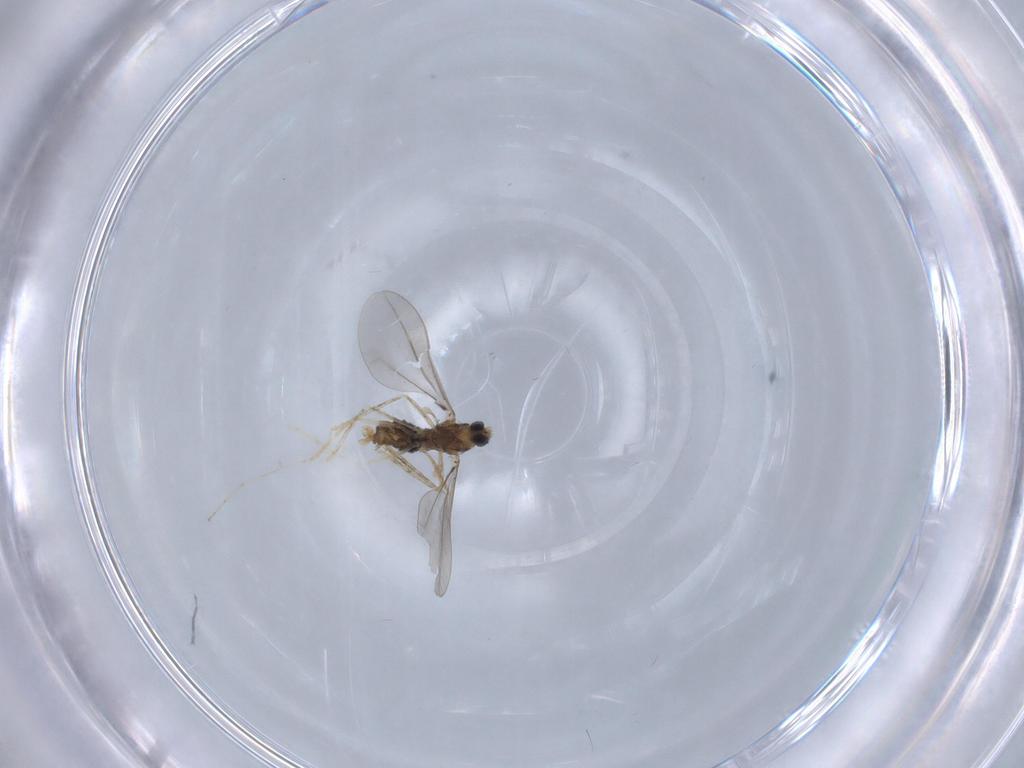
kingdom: Animalia
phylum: Arthropoda
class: Insecta
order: Diptera
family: Cecidomyiidae
